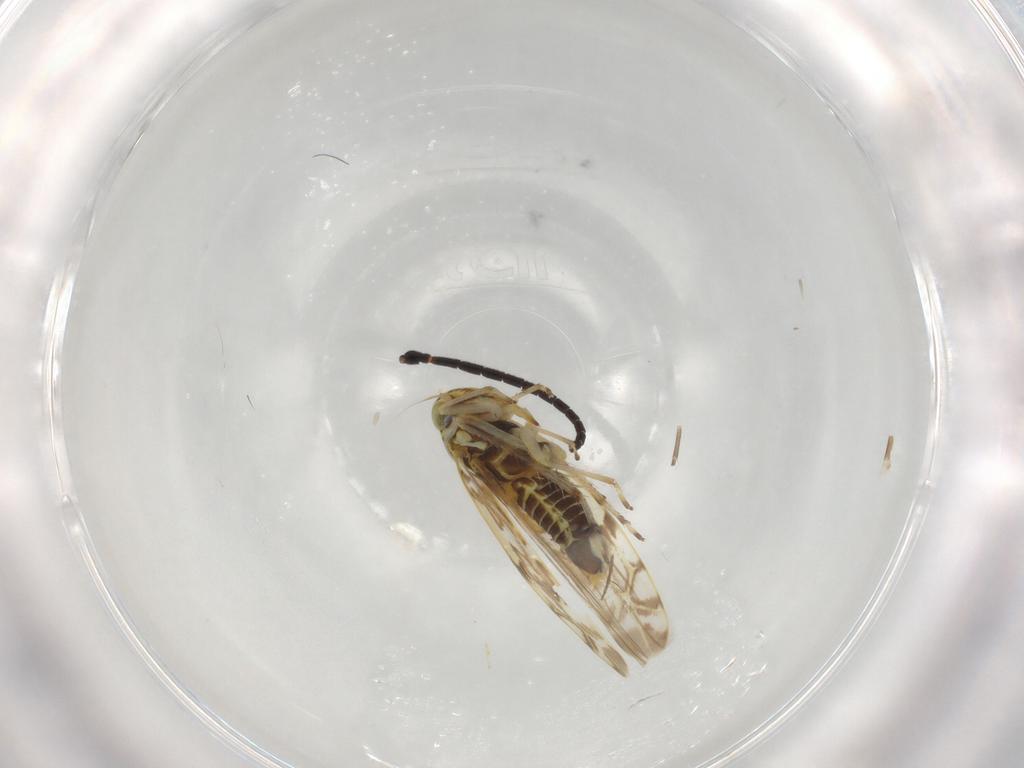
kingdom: Animalia
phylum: Arthropoda
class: Insecta
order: Hemiptera
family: Cicadellidae
